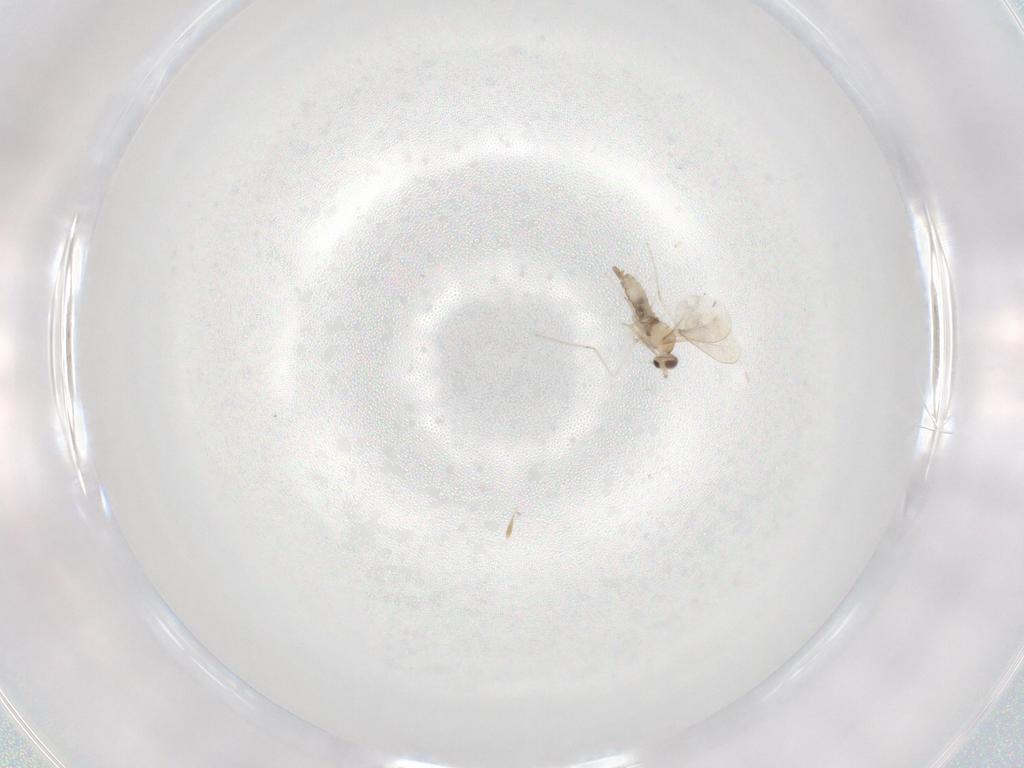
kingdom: Animalia
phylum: Arthropoda
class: Insecta
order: Diptera
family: Cecidomyiidae
